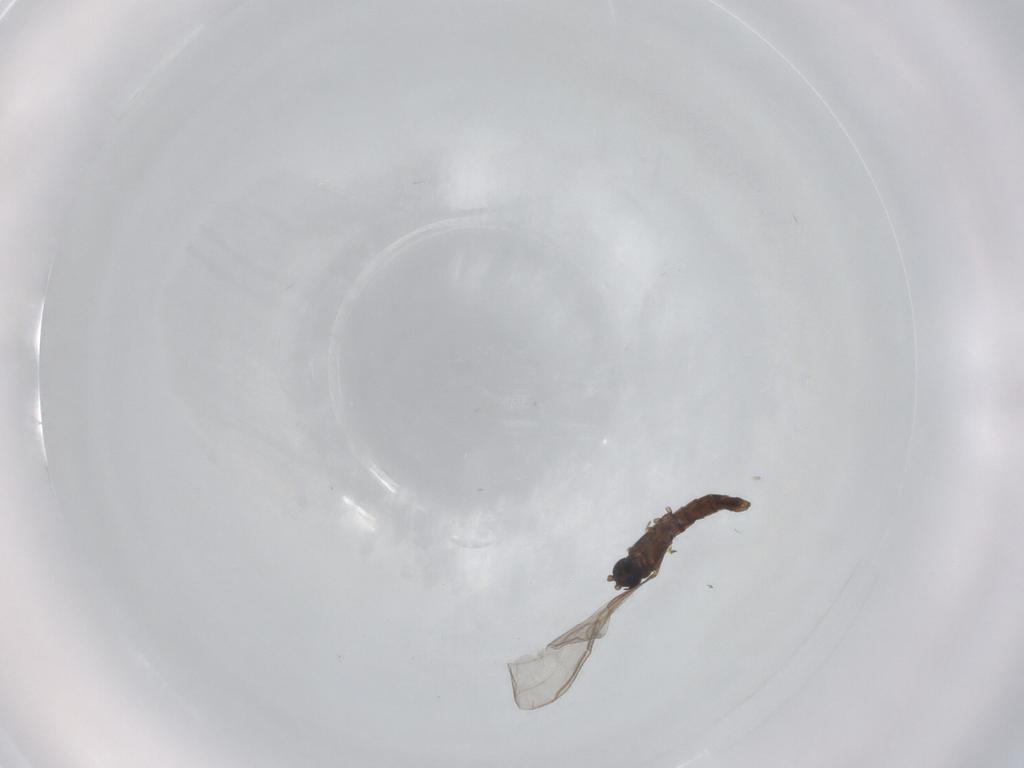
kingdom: Animalia
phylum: Arthropoda
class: Insecta
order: Diptera
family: Sciaridae
